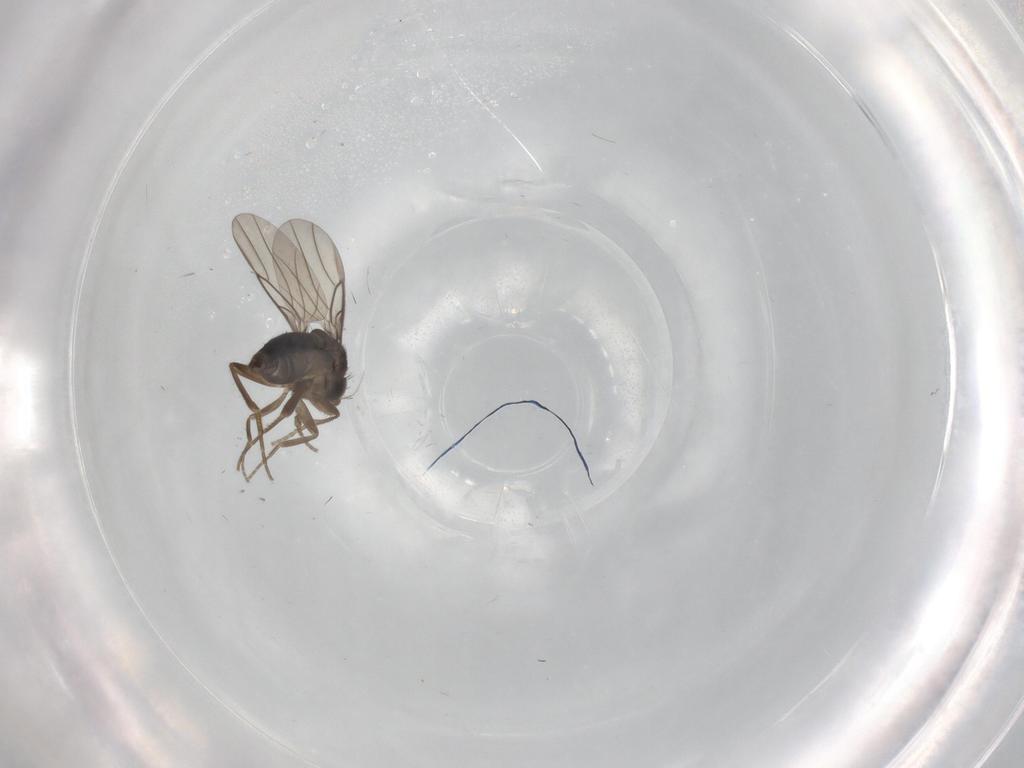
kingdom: Animalia
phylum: Arthropoda
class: Insecta
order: Diptera
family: Phoridae
